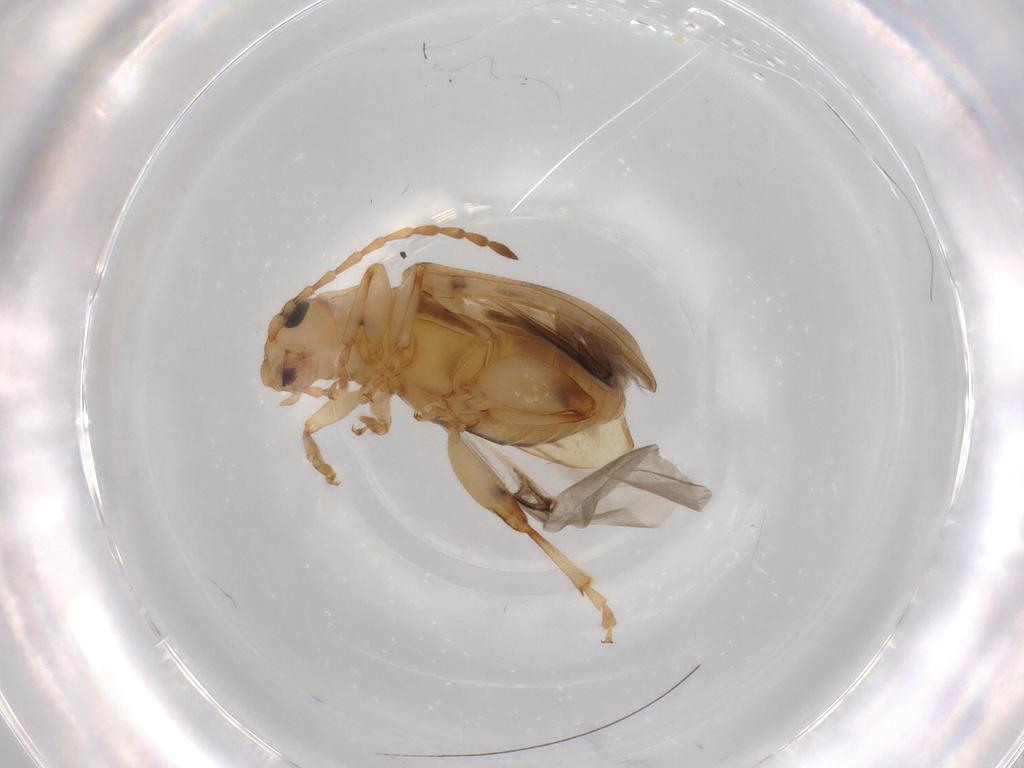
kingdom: Animalia
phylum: Arthropoda
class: Insecta
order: Coleoptera
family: Chrysomelidae
